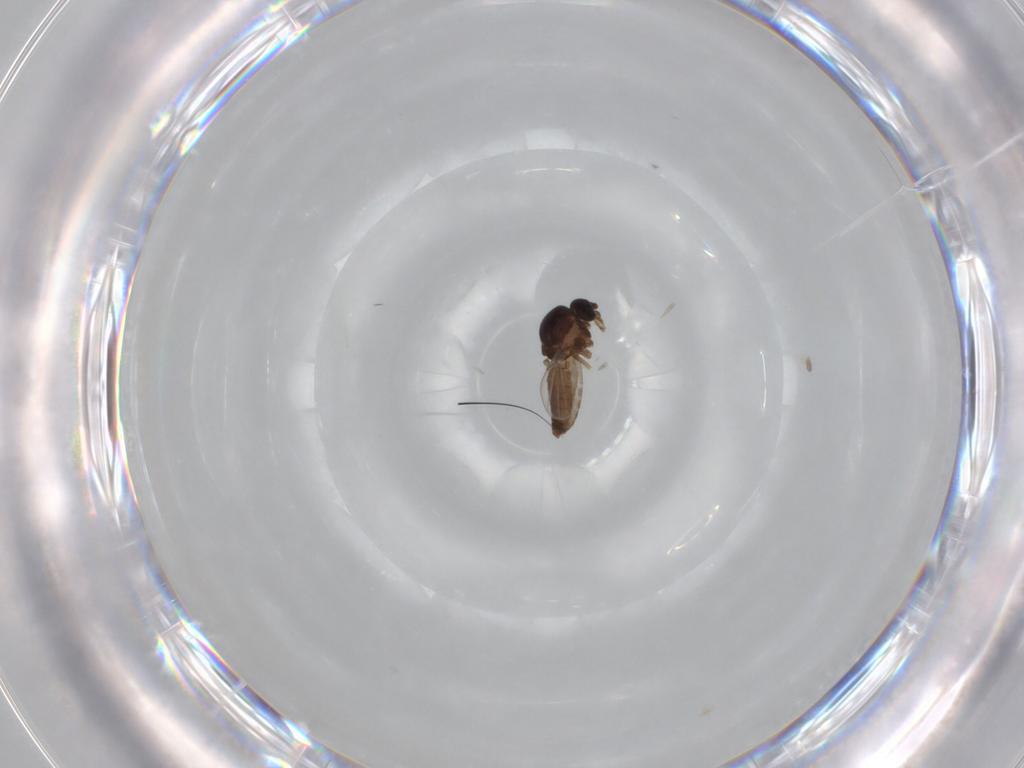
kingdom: Animalia
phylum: Arthropoda
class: Insecta
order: Diptera
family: Ceratopogonidae
